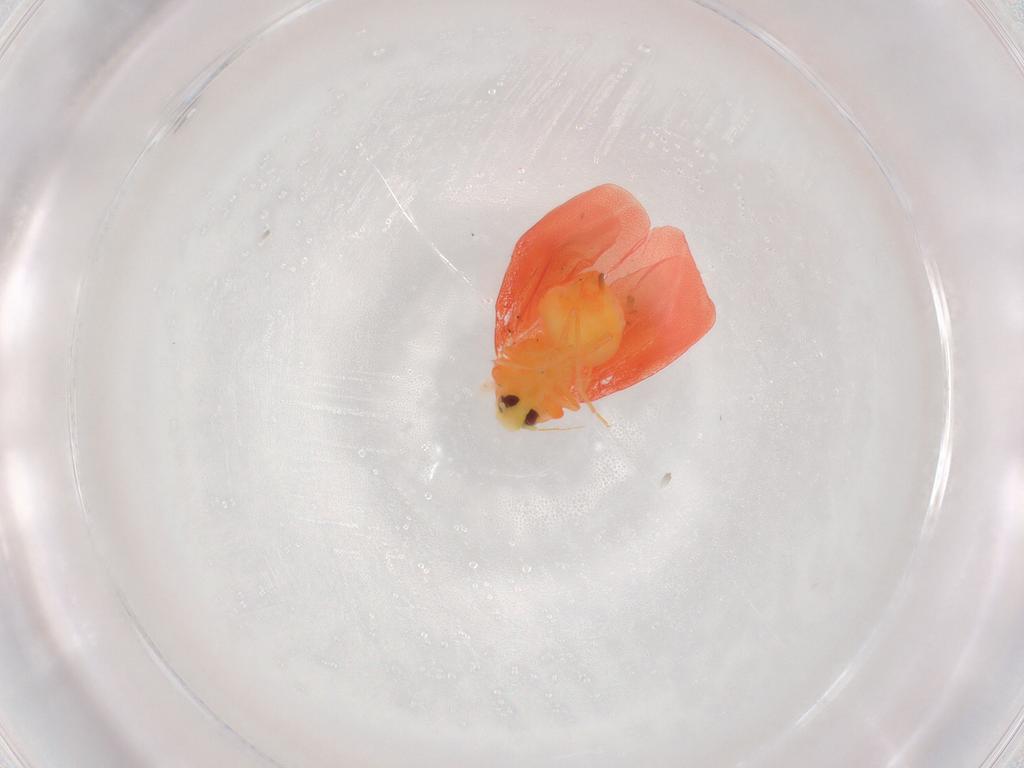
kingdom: Animalia
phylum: Arthropoda
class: Insecta
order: Hemiptera
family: Aleyrodidae
